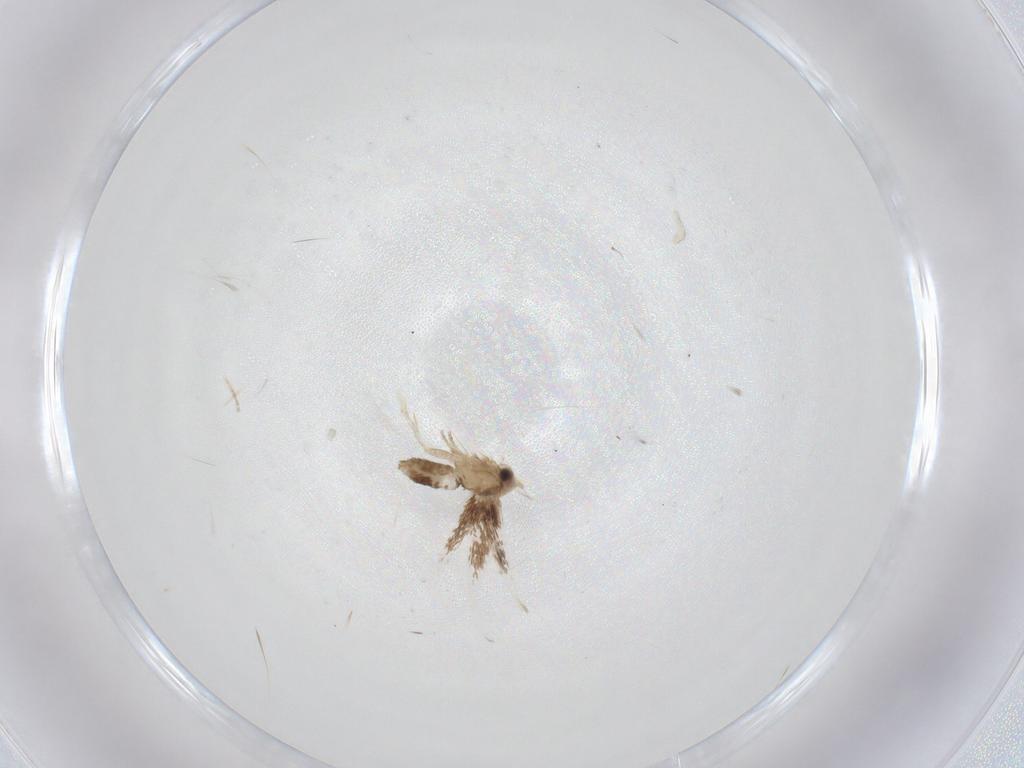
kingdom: Animalia
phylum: Arthropoda
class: Insecta
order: Lepidoptera
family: Nepticulidae
